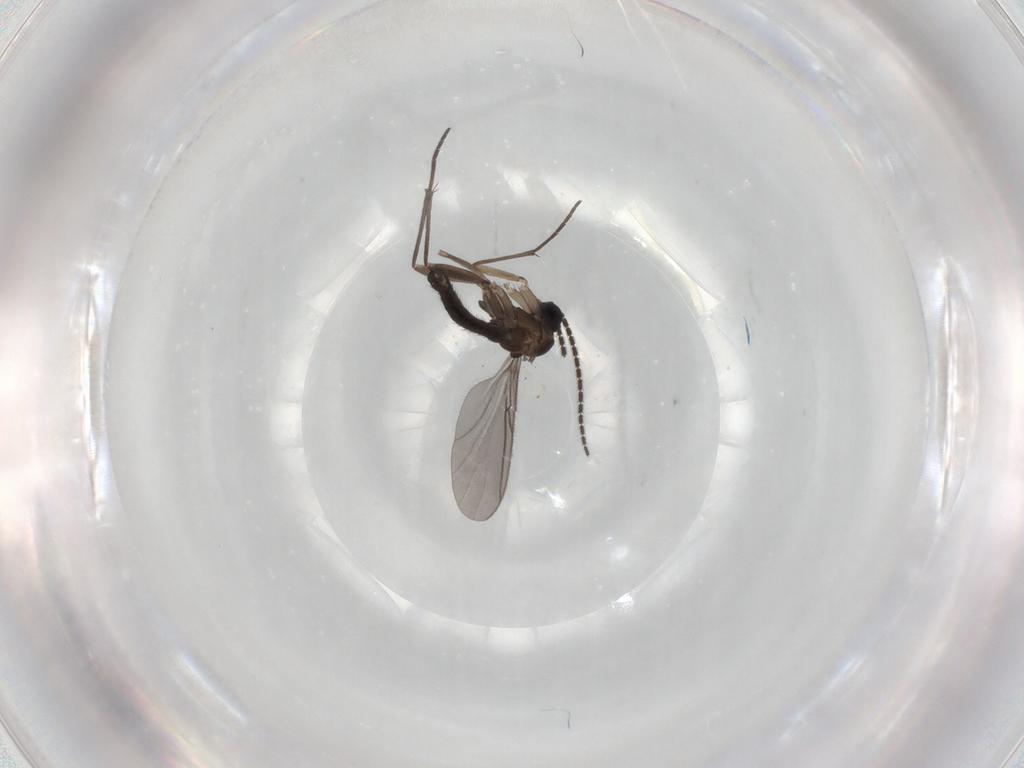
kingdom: Animalia
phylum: Arthropoda
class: Insecta
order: Diptera
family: Sciaridae
